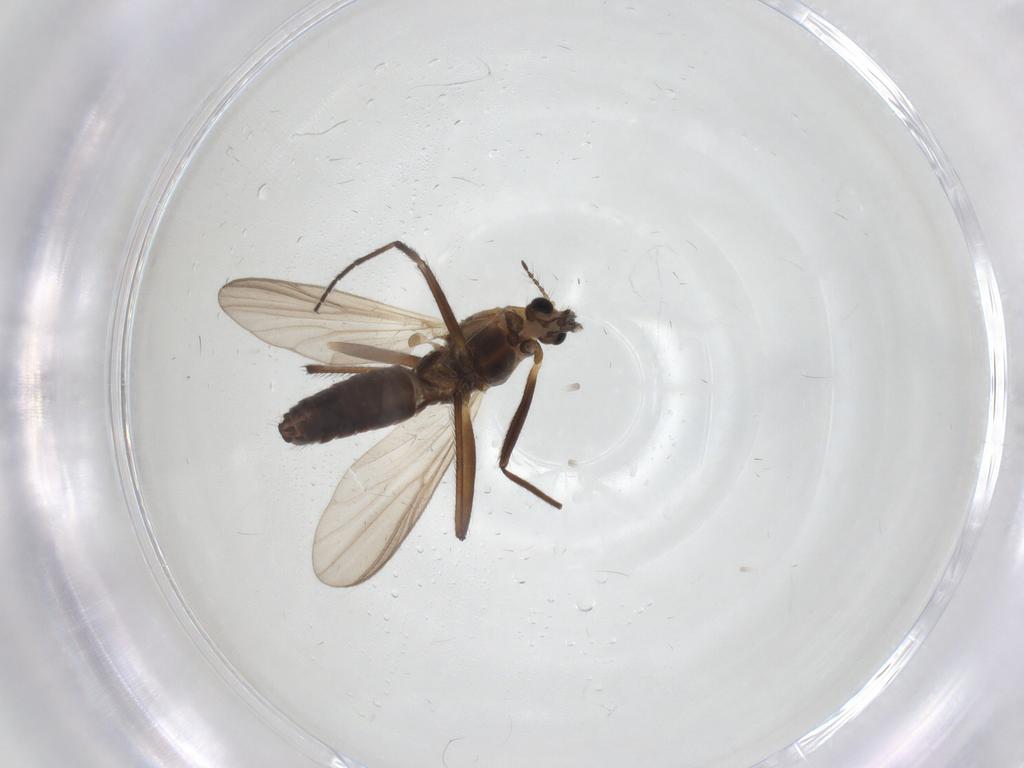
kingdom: Animalia
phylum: Arthropoda
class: Insecta
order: Diptera
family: Chironomidae
